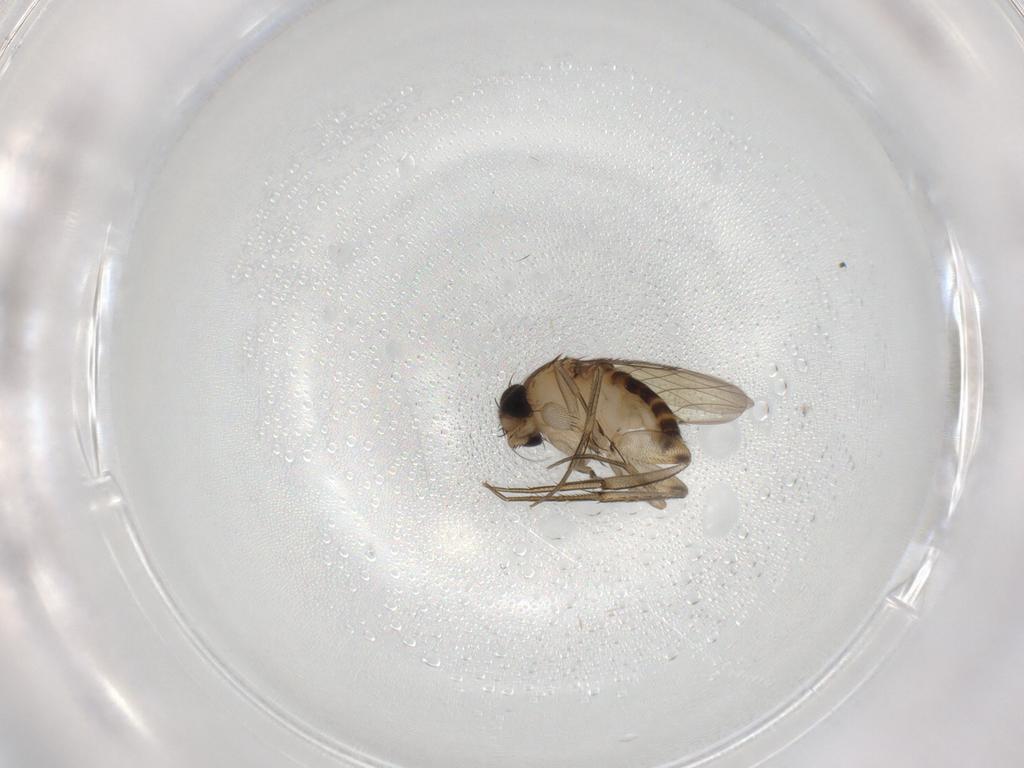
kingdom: Animalia
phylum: Arthropoda
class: Insecta
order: Diptera
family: Phoridae
